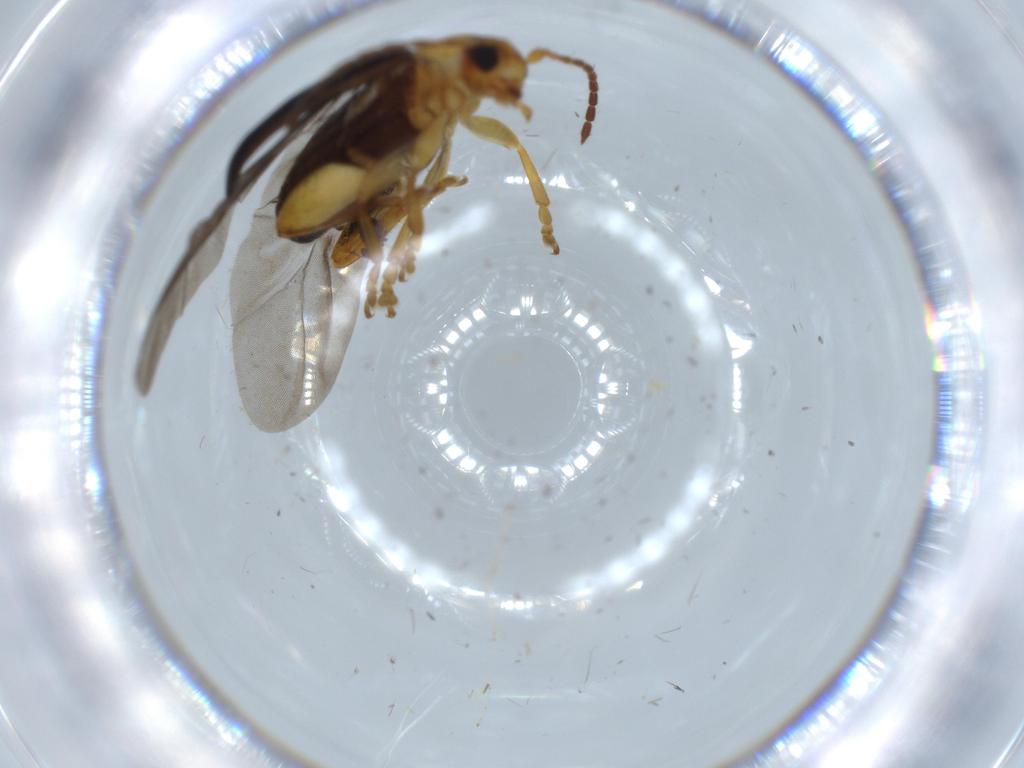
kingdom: Animalia
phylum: Arthropoda
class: Insecta
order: Coleoptera
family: Chrysomelidae
